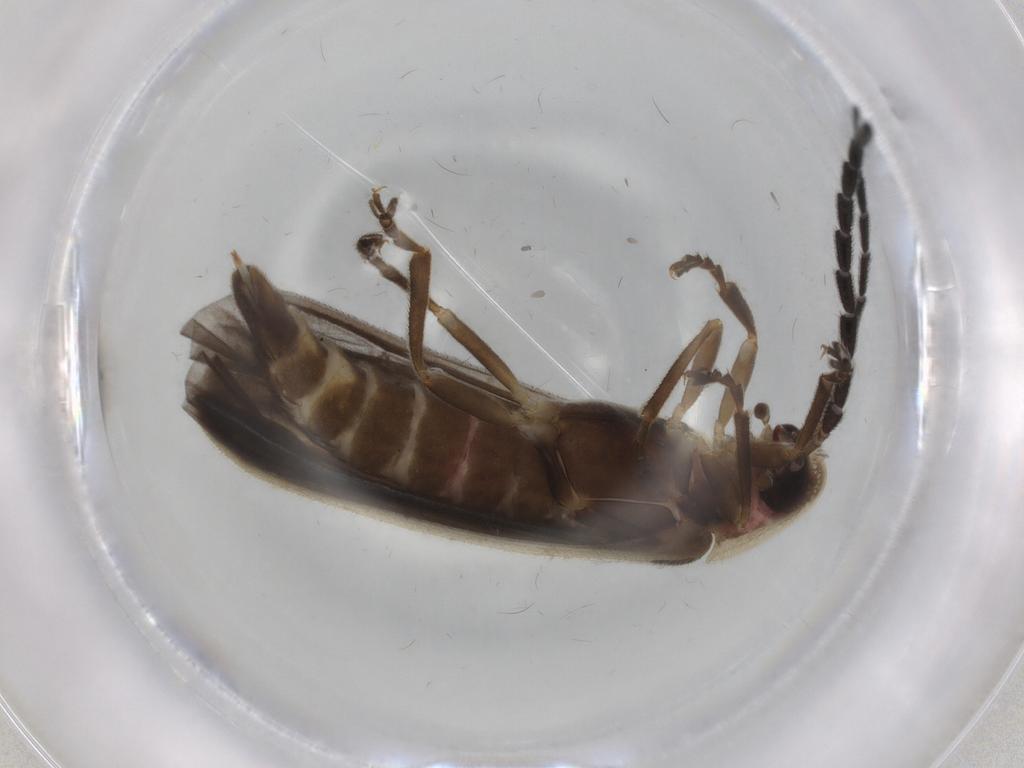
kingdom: Animalia
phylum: Arthropoda
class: Insecta
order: Coleoptera
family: Lampyridae
